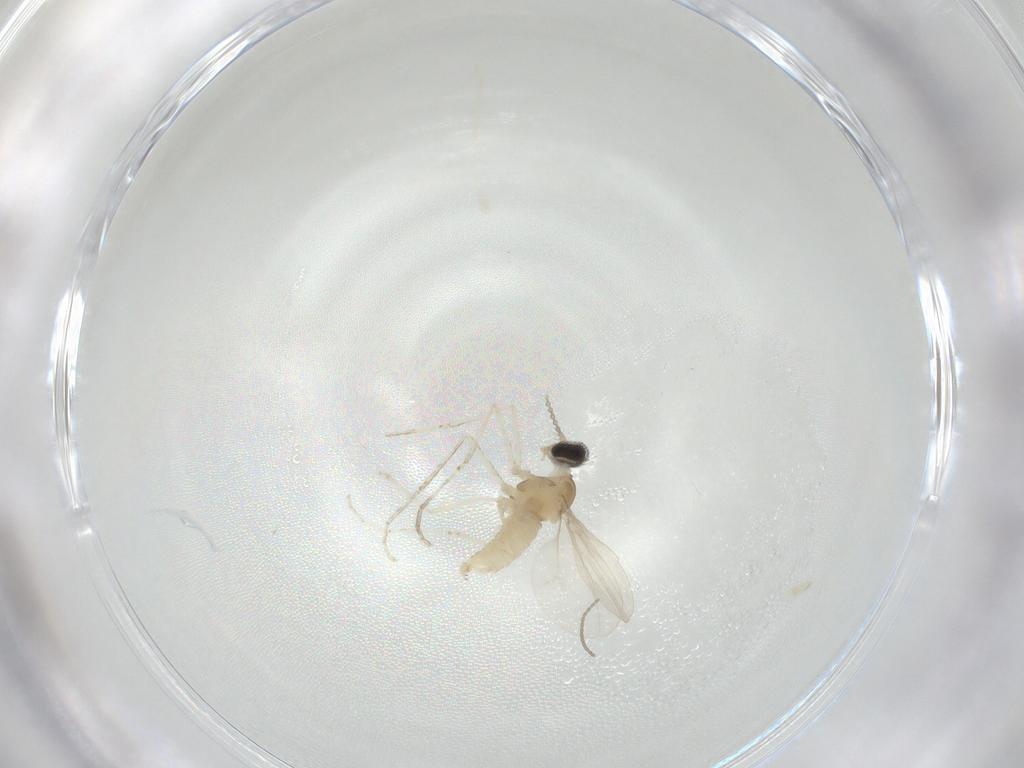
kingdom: Animalia
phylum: Arthropoda
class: Insecta
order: Diptera
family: Cecidomyiidae
